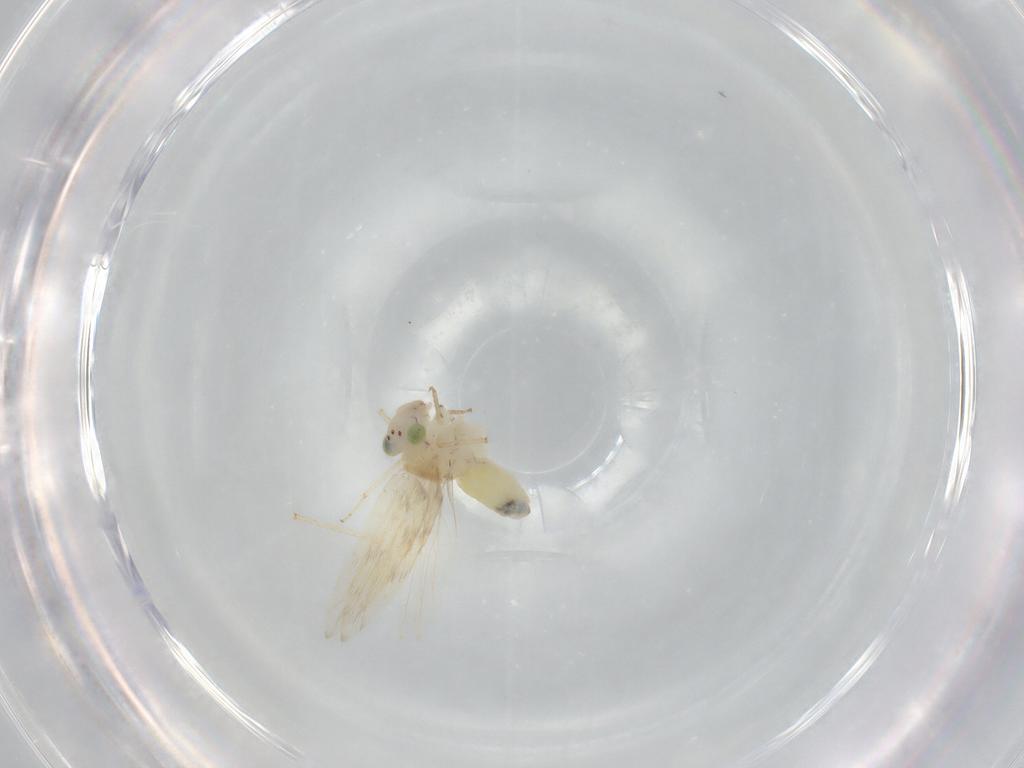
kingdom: Animalia
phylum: Arthropoda
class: Insecta
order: Psocodea
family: Lepidopsocidae
